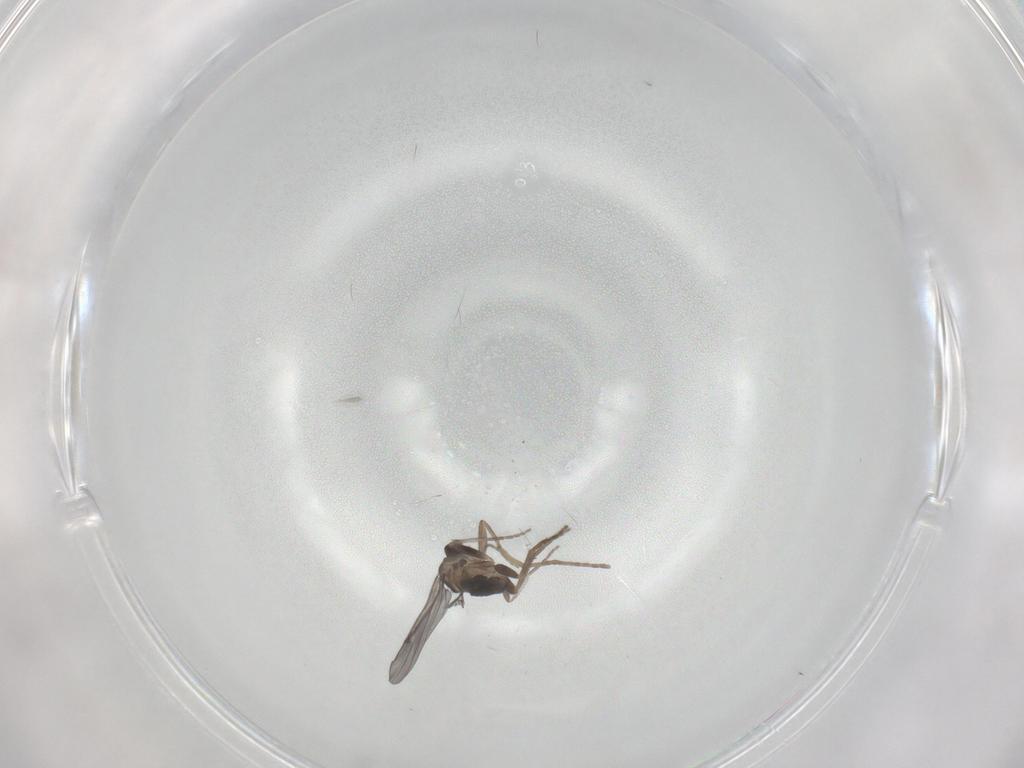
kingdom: Animalia
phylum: Arthropoda
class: Insecta
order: Diptera
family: Phoridae
